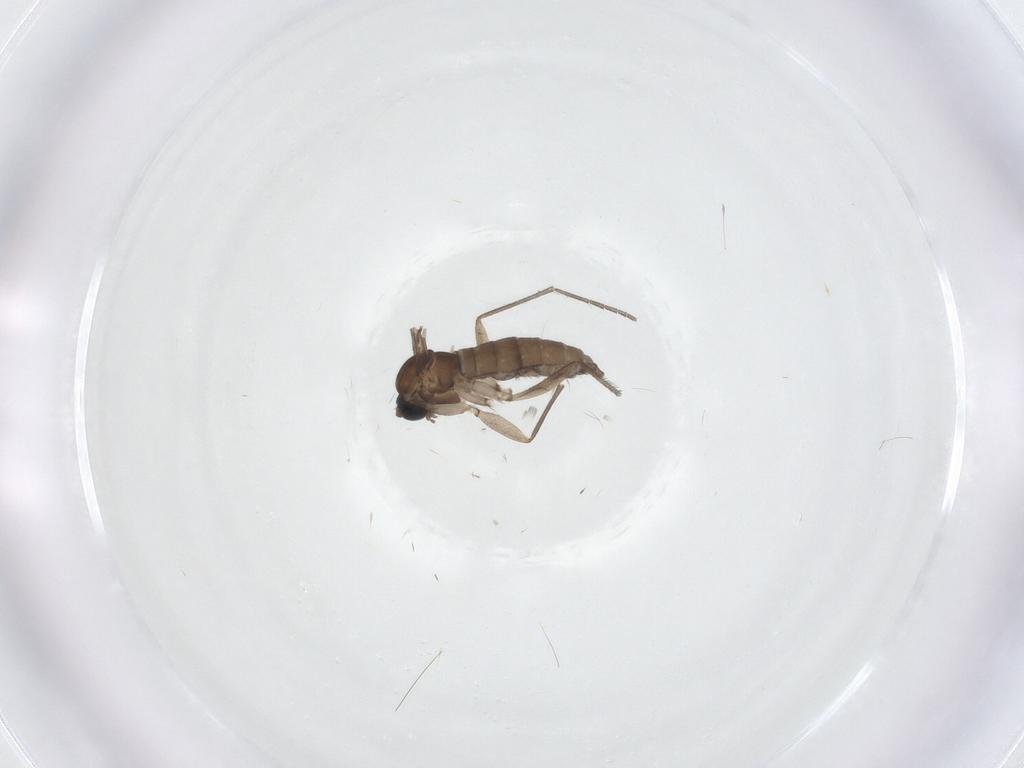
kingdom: Animalia
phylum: Arthropoda
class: Insecta
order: Diptera
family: Sciaridae
